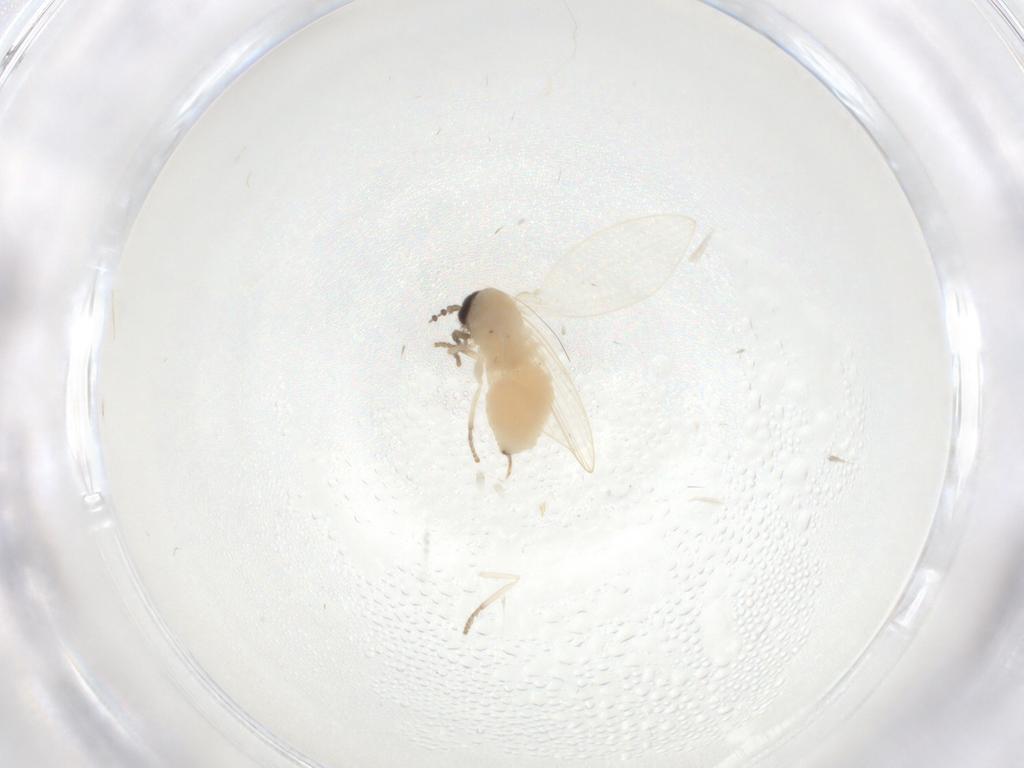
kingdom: Animalia
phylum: Arthropoda
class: Insecta
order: Diptera
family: Psychodidae
